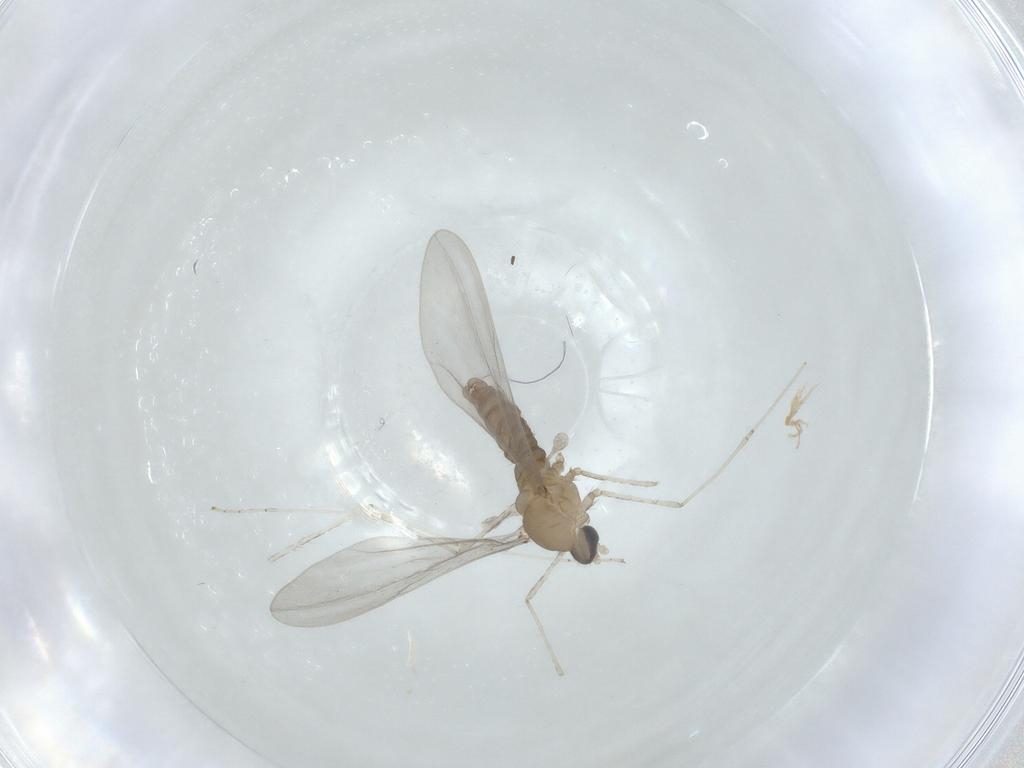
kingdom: Animalia
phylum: Arthropoda
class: Insecta
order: Diptera
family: Cecidomyiidae
